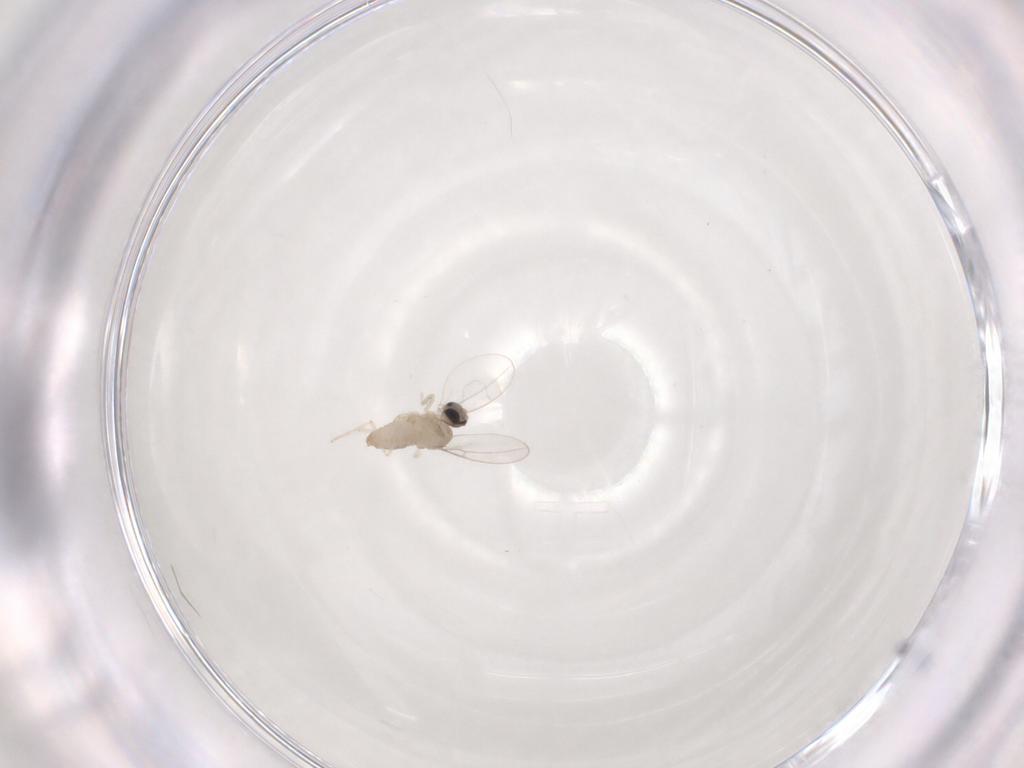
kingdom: Animalia
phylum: Arthropoda
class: Insecta
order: Diptera
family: Cecidomyiidae
